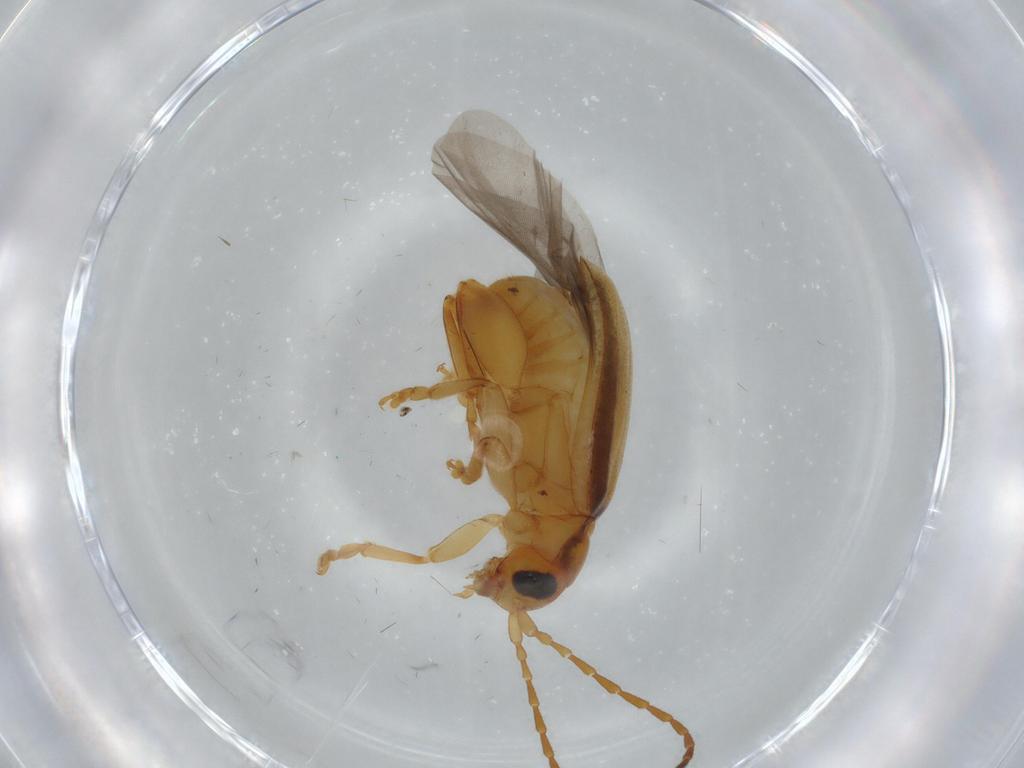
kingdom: Animalia
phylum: Arthropoda
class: Insecta
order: Coleoptera
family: Chrysomelidae
